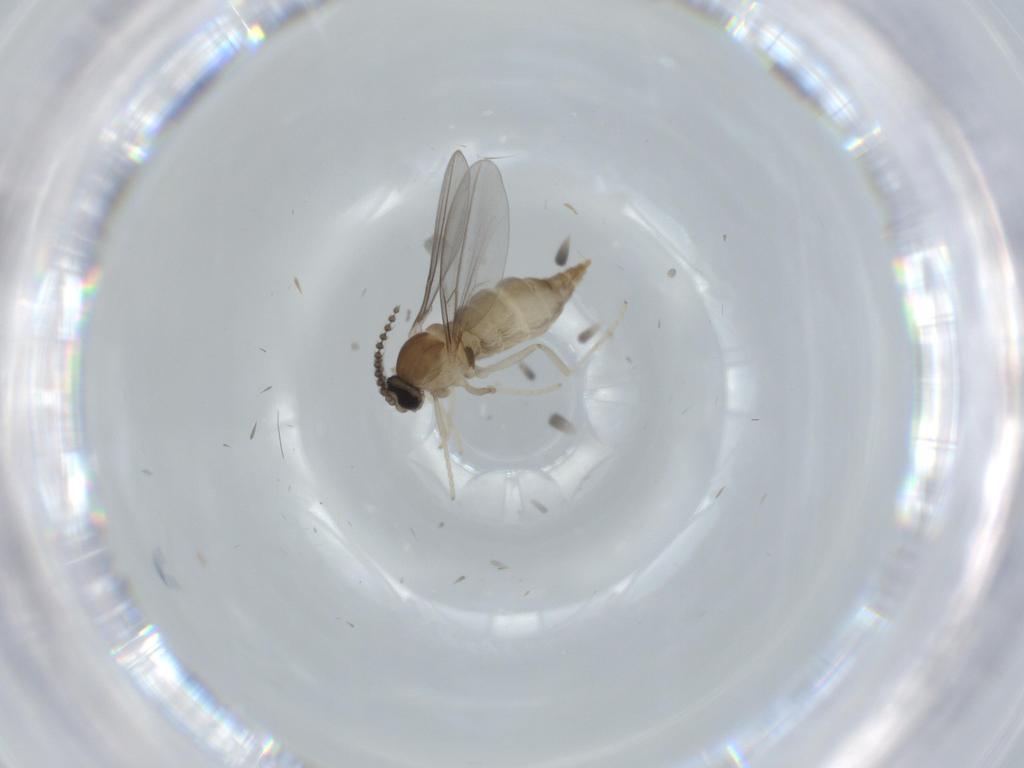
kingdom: Animalia
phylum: Arthropoda
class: Insecta
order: Diptera
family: Cecidomyiidae
